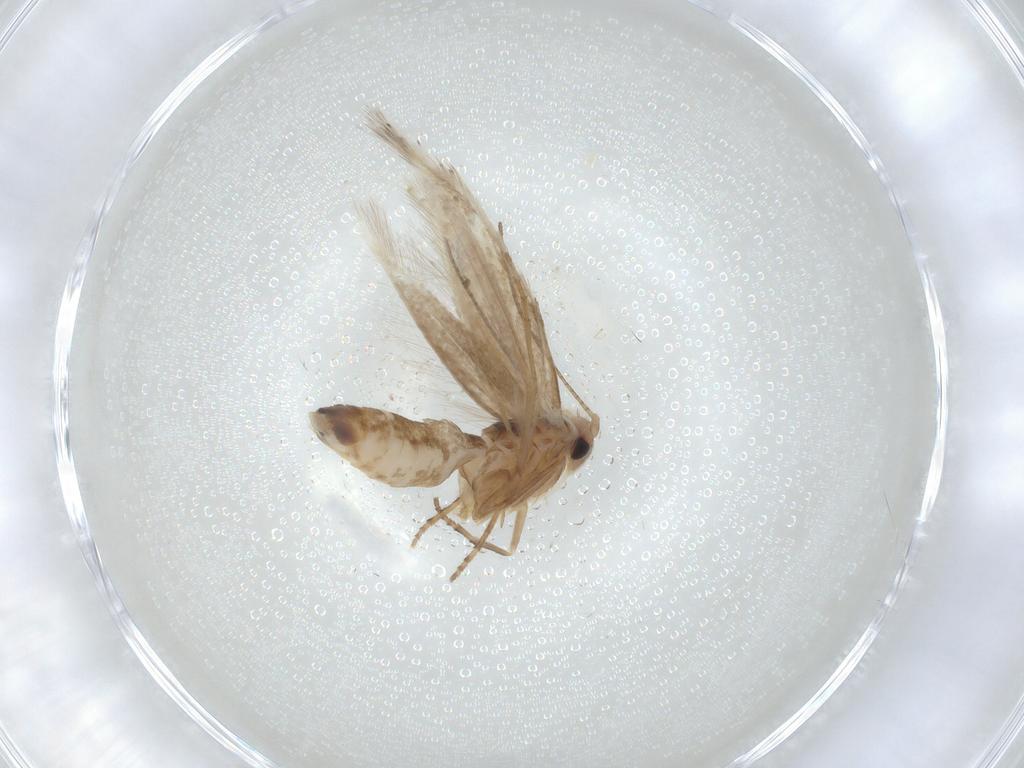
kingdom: Animalia
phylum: Arthropoda
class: Insecta
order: Lepidoptera
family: Bucculatricidae
